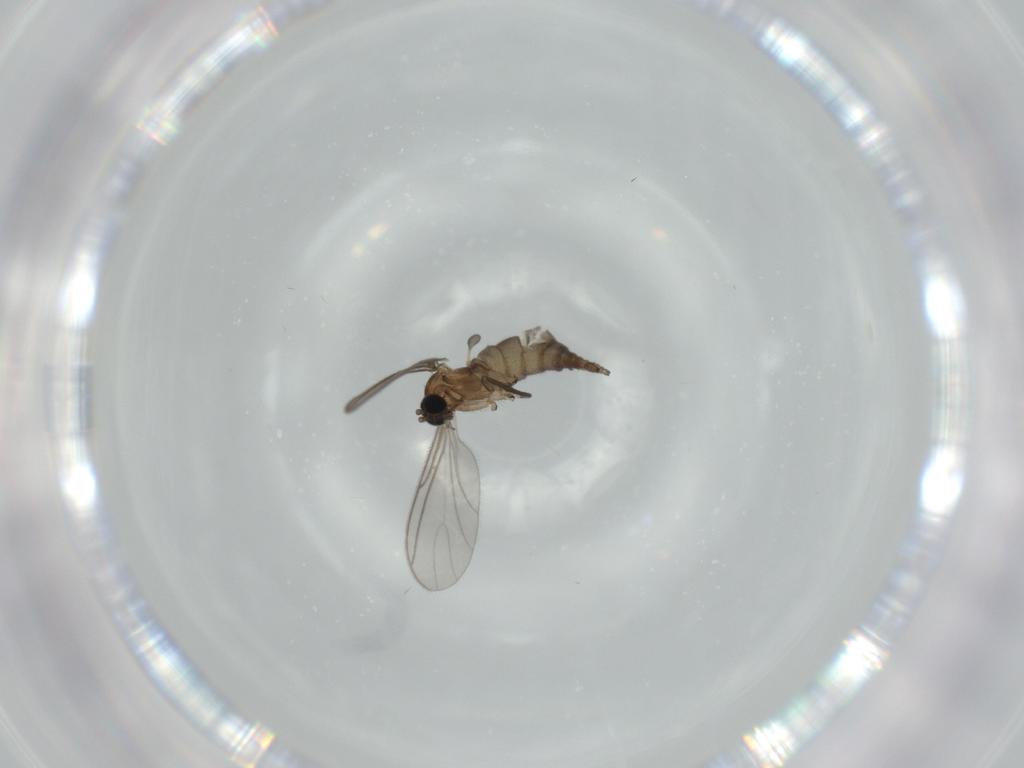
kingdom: Animalia
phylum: Arthropoda
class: Insecta
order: Diptera
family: Sciaridae
